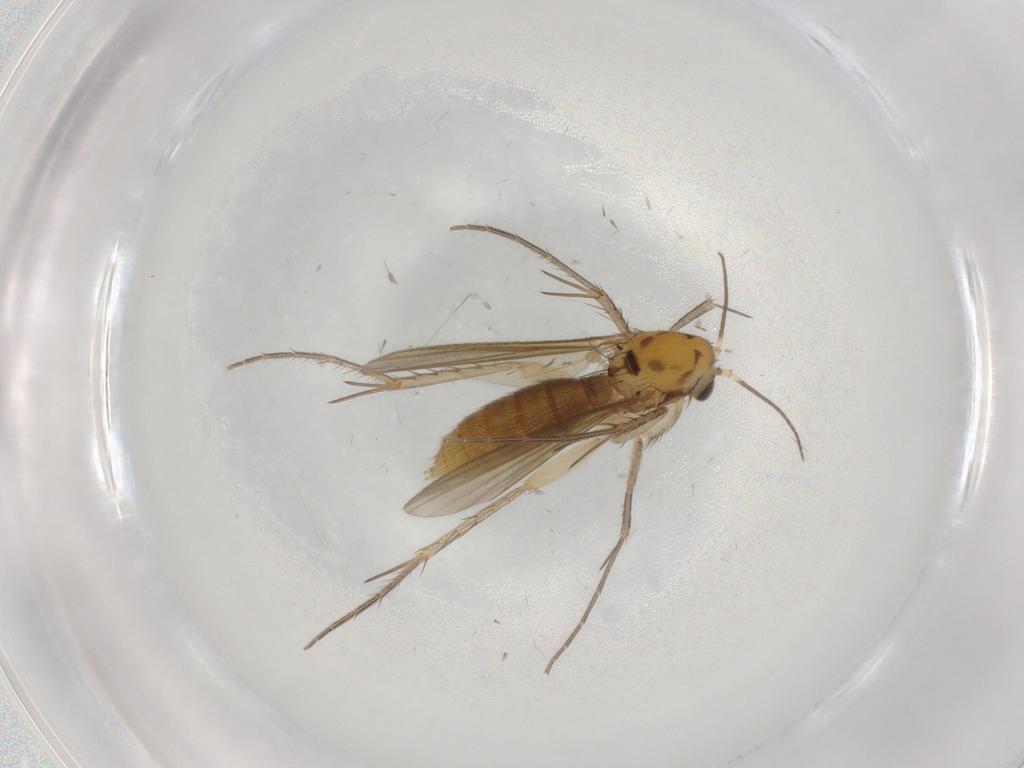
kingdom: Animalia
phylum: Arthropoda
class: Insecta
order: Diptera
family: Mycetophilidae
